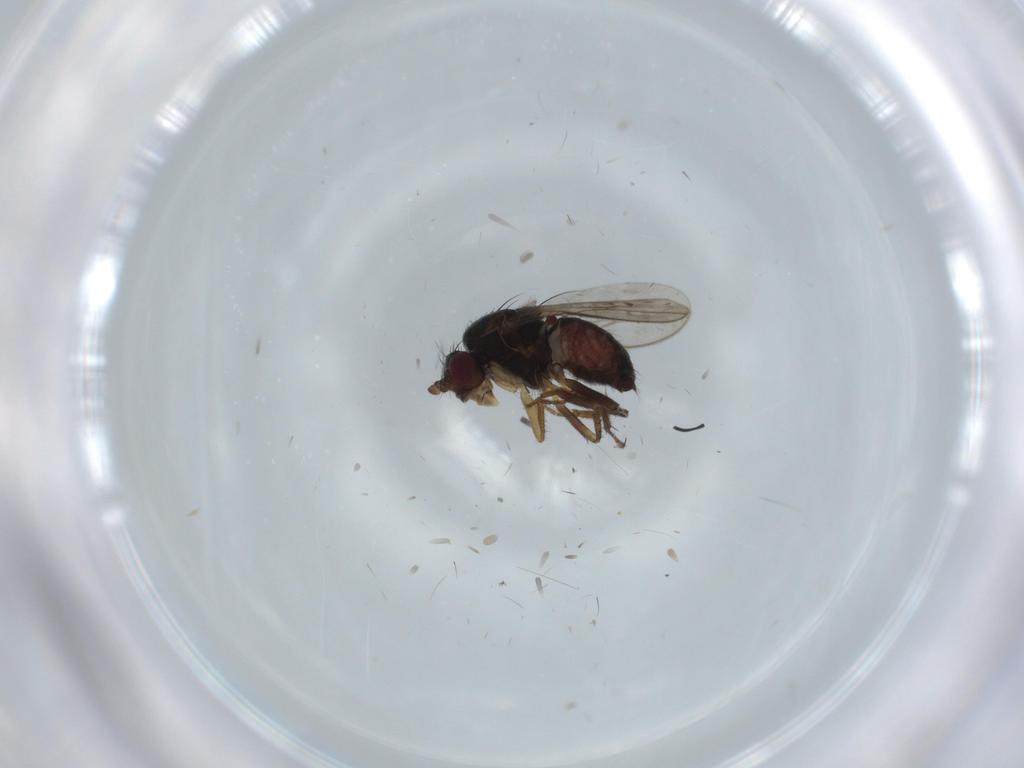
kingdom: Animalia
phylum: Arthropoda
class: Insecta
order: Diptera
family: Sphaeroceridae
